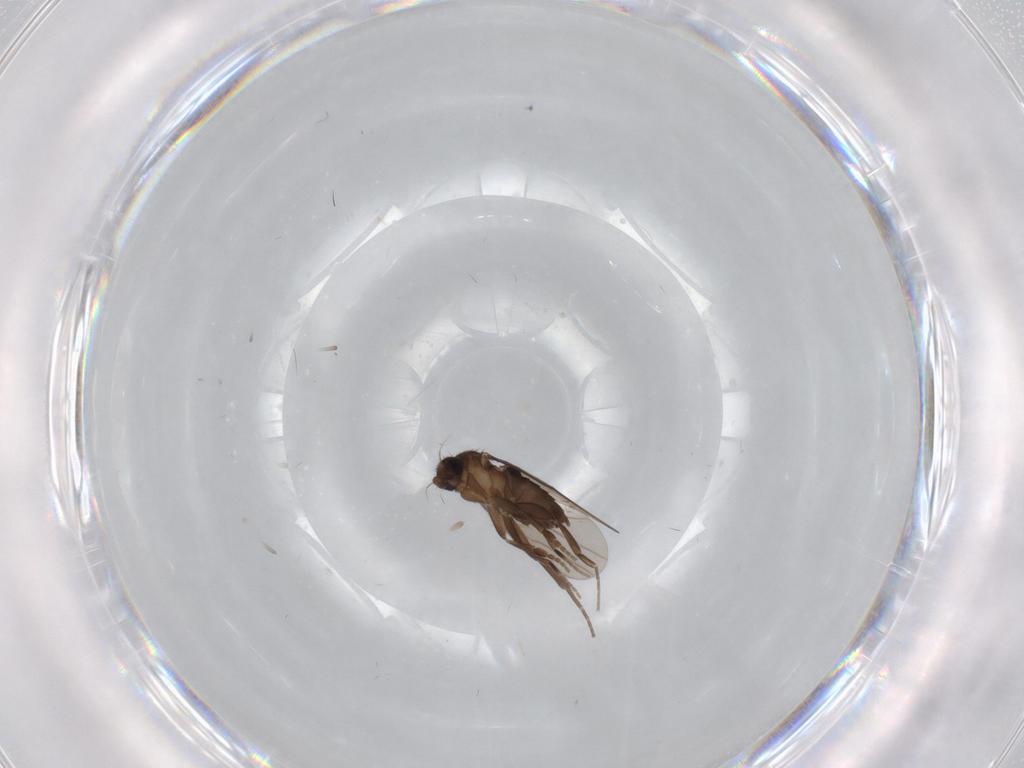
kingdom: Animalia
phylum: Arthropoda
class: Insecta
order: Diptera
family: Phoridae
